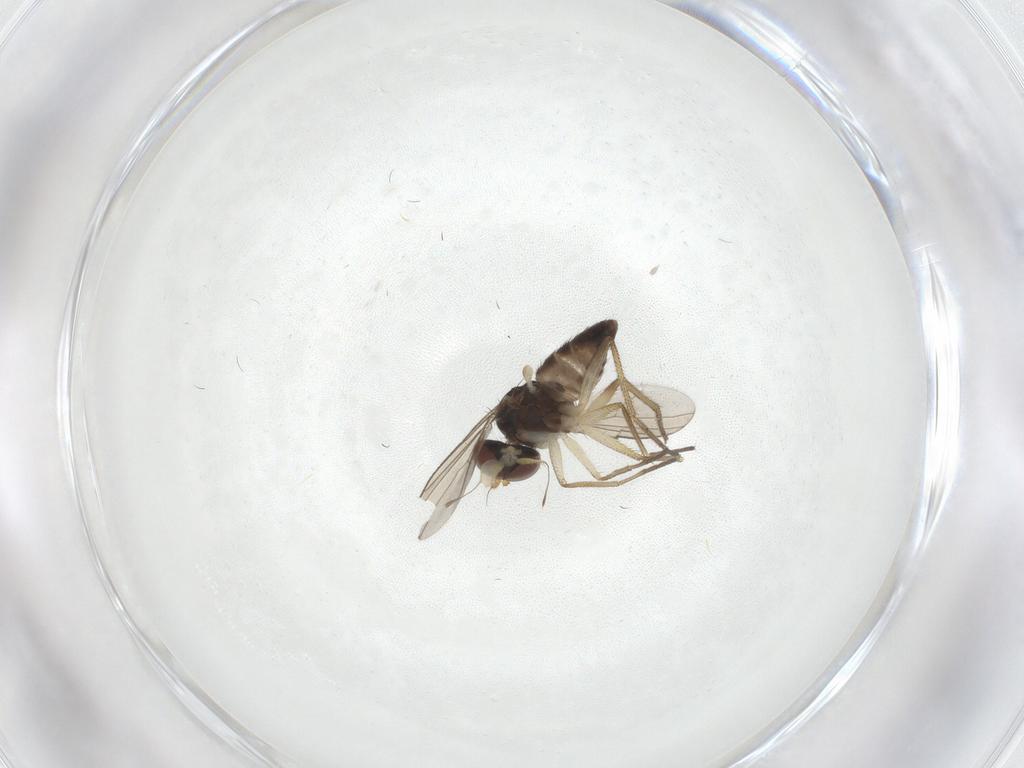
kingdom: Animalia
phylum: Arthropoda
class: Insecta
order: Diptera
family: Dolichopodidae
